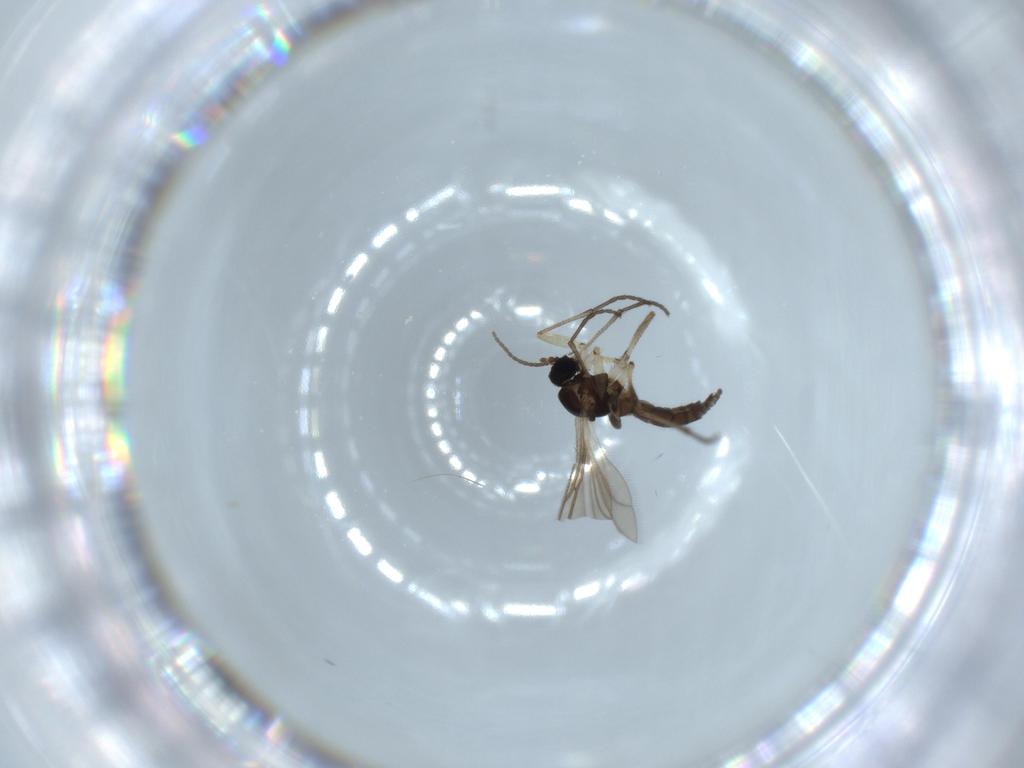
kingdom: Animalia
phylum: Arthropoda
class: Insecta
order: Diptera
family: Sciaridae
